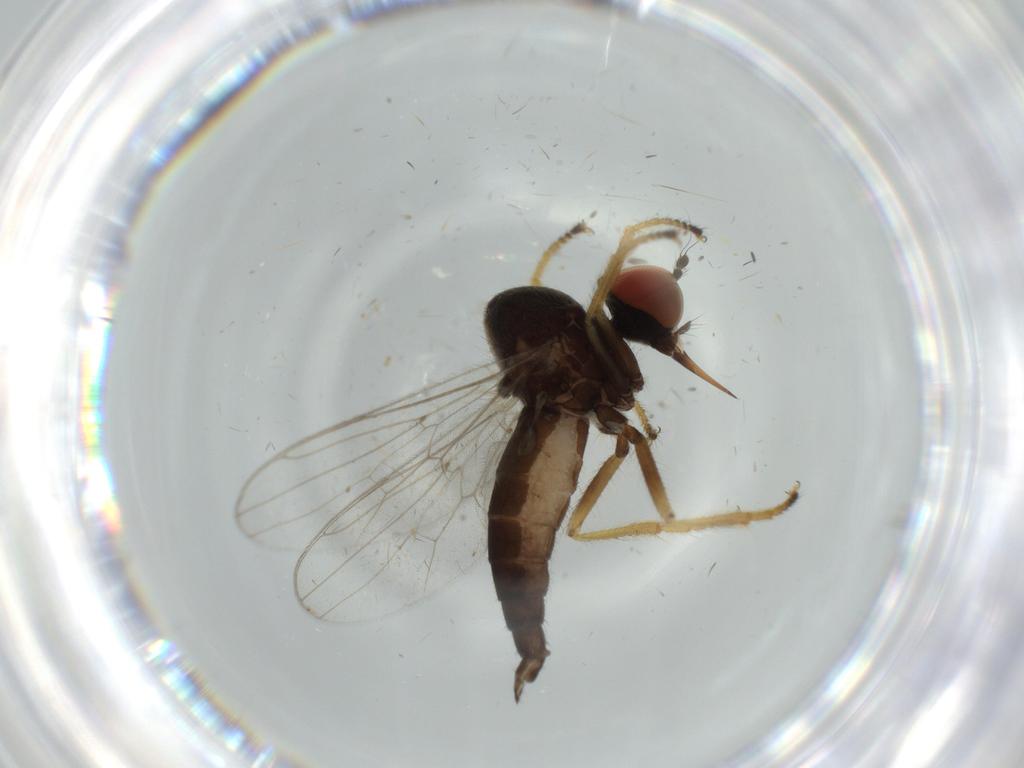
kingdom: Animalia
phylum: Arthropoda
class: Insecta
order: Diptera
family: Cecidomyiidae
